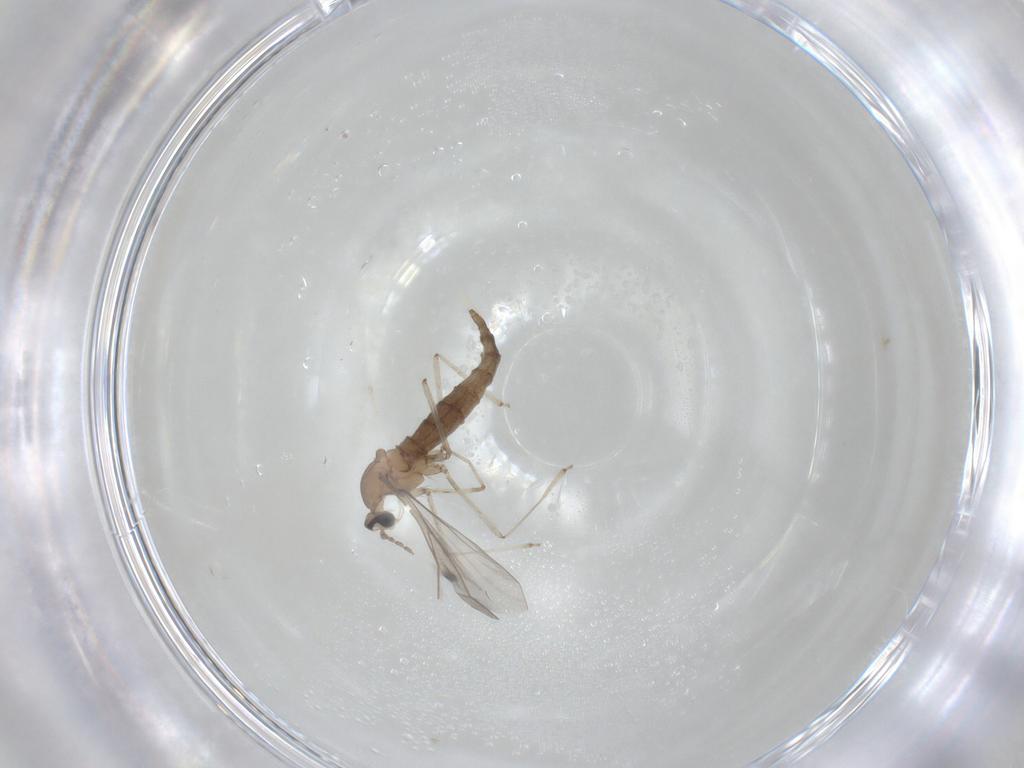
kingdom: Animalia
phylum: Arthropoda
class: Insecta
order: Diptera
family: Cecidomyiidae
